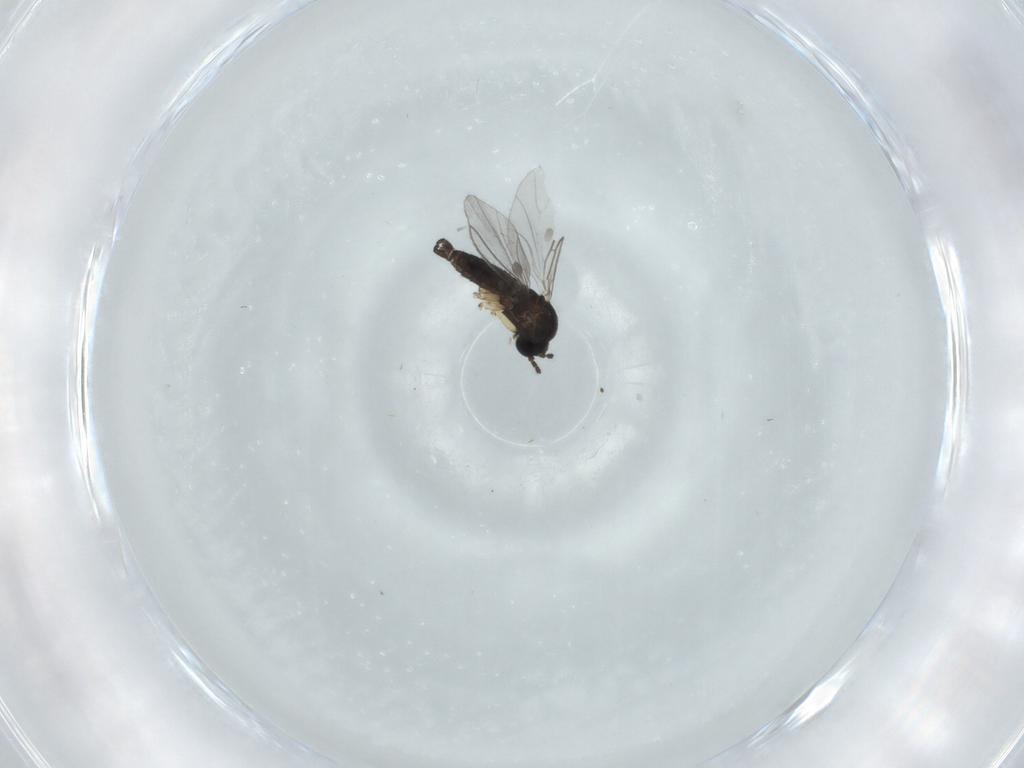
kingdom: Animalia
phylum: Arthropoda
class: Insecta
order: Diptera
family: Sciaridae
